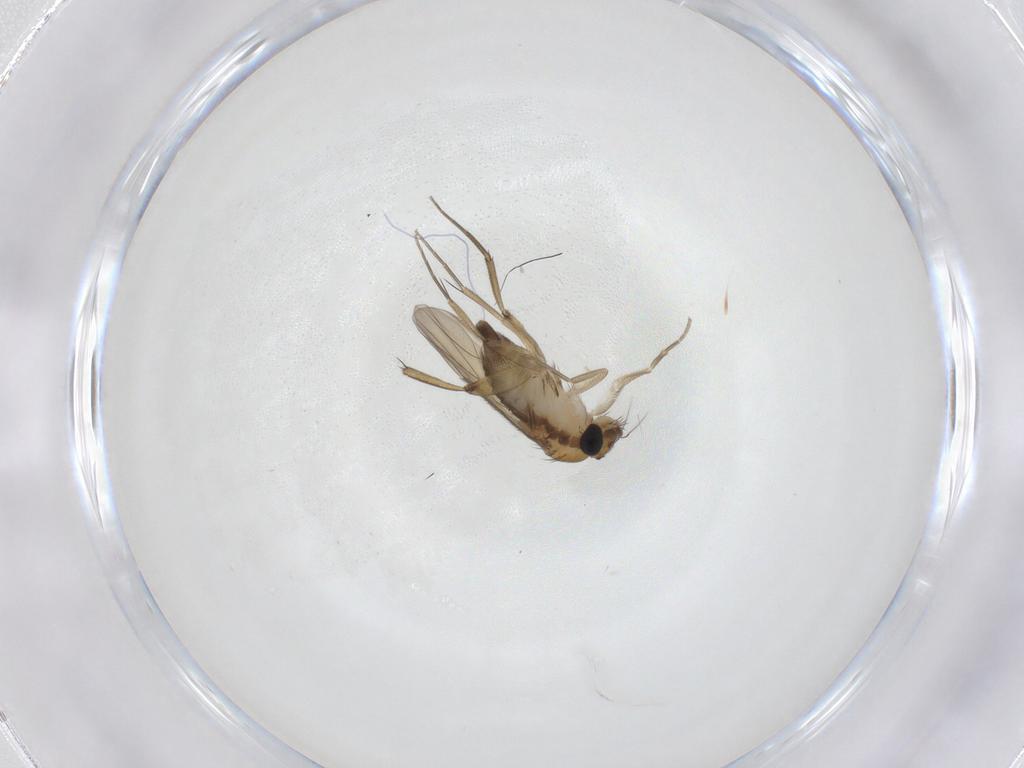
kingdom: Animalia
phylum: Arthropoda
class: Insecta
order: Diptera
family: Phoridae
